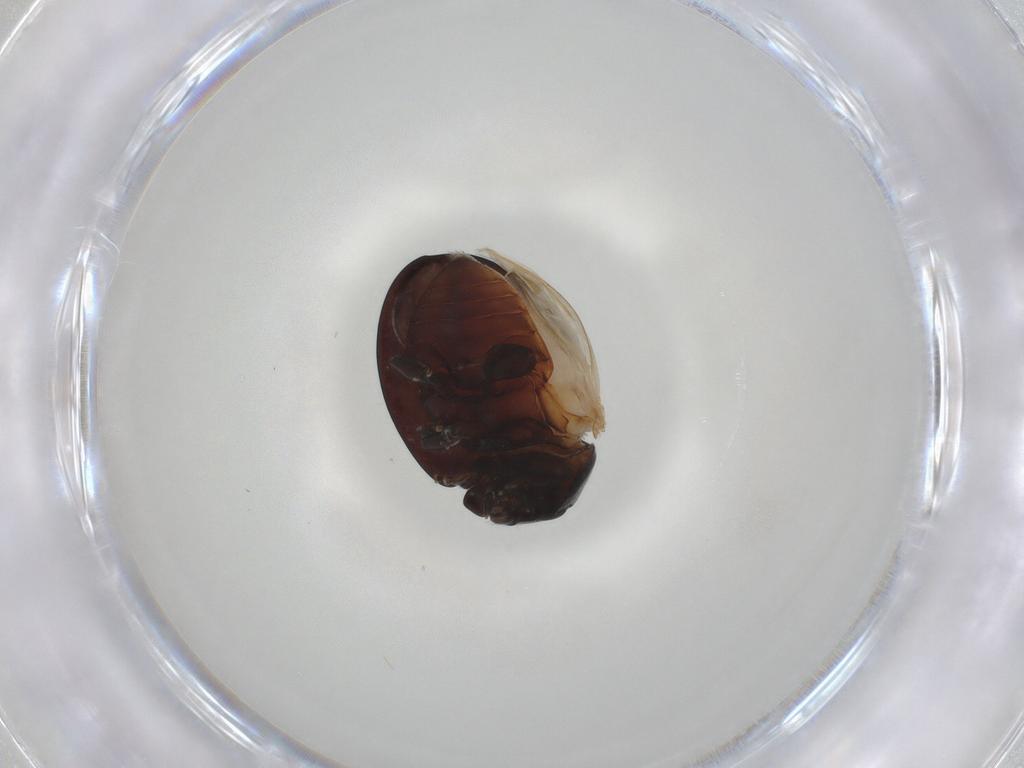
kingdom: Animalia
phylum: Arthropoda
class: Insecta
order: Coleoptera
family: Coccinellidae
